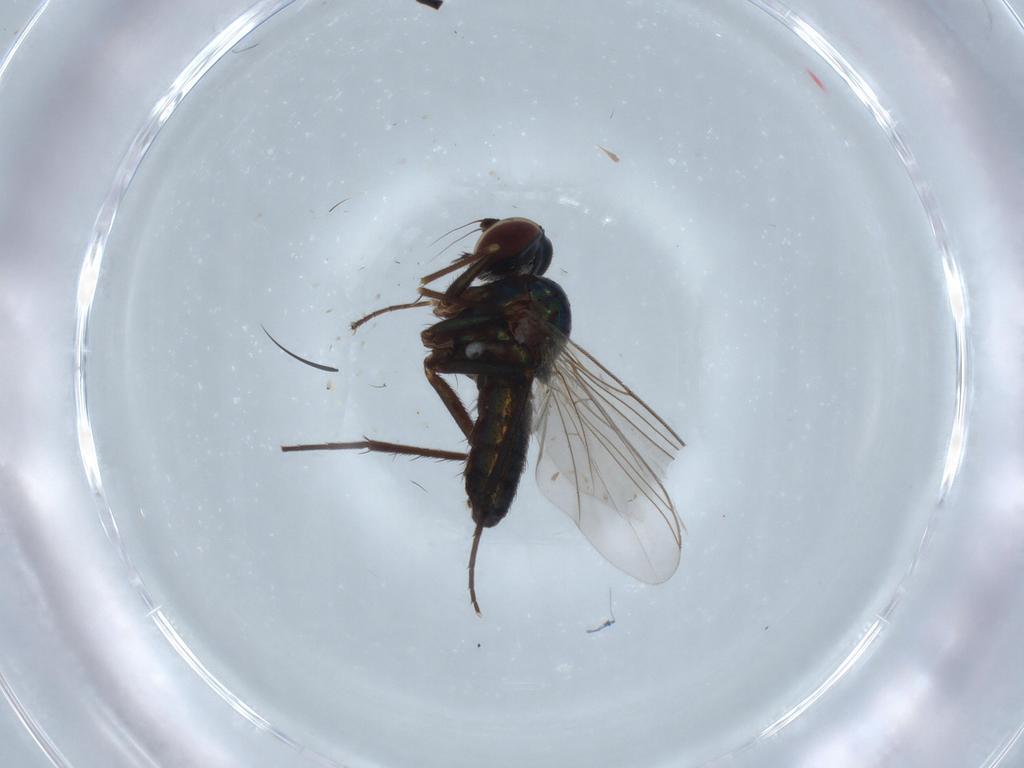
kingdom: Animalia
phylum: Arthropoda
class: Insecta
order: Diptera
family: Dolichopodidae
